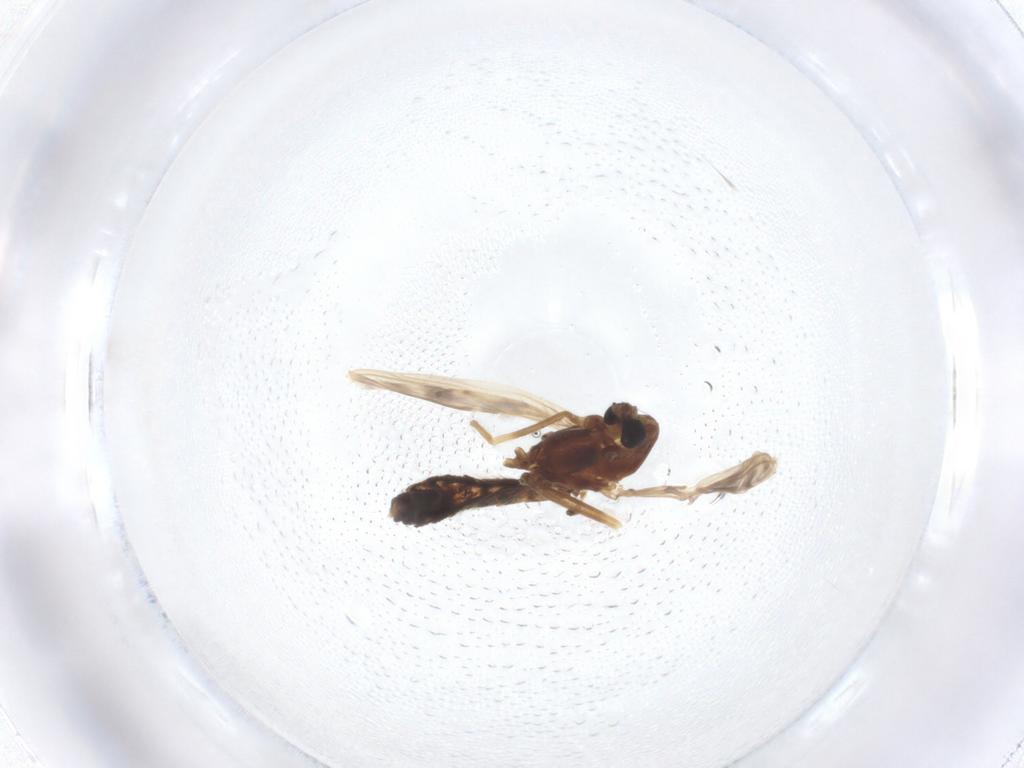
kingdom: Animalia
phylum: Arthropoda
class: Insecta
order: Diptera
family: Chironomidae
